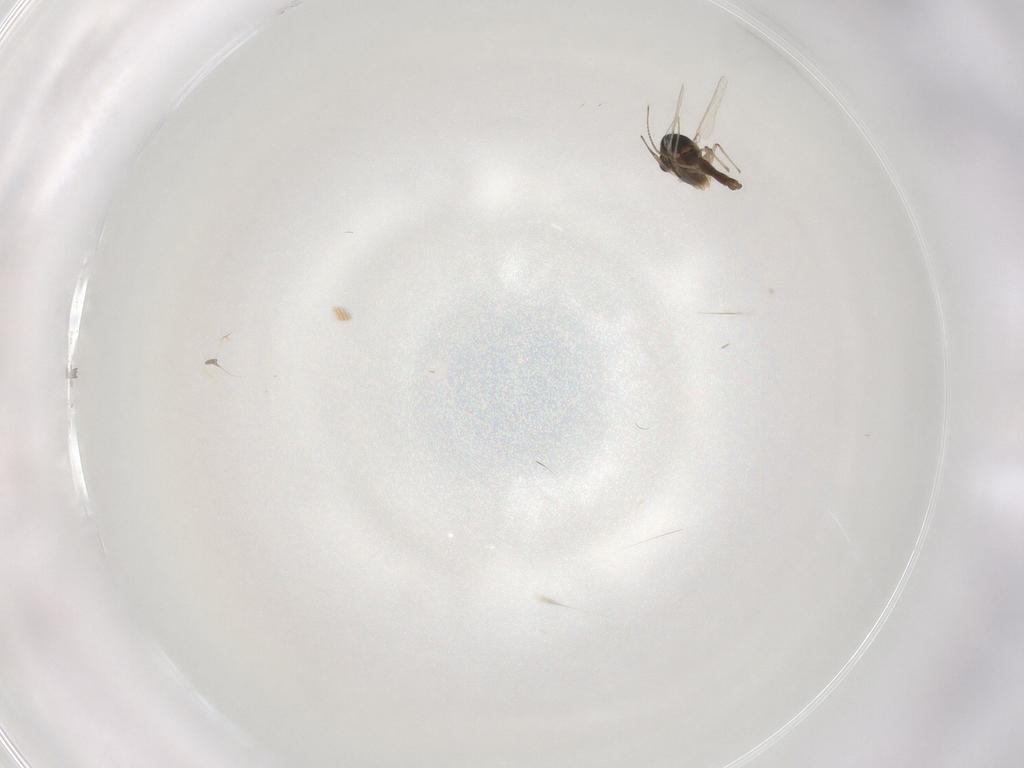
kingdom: Animalia
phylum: Arthropoda
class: Insecta
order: Diptera
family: Chironomidae
